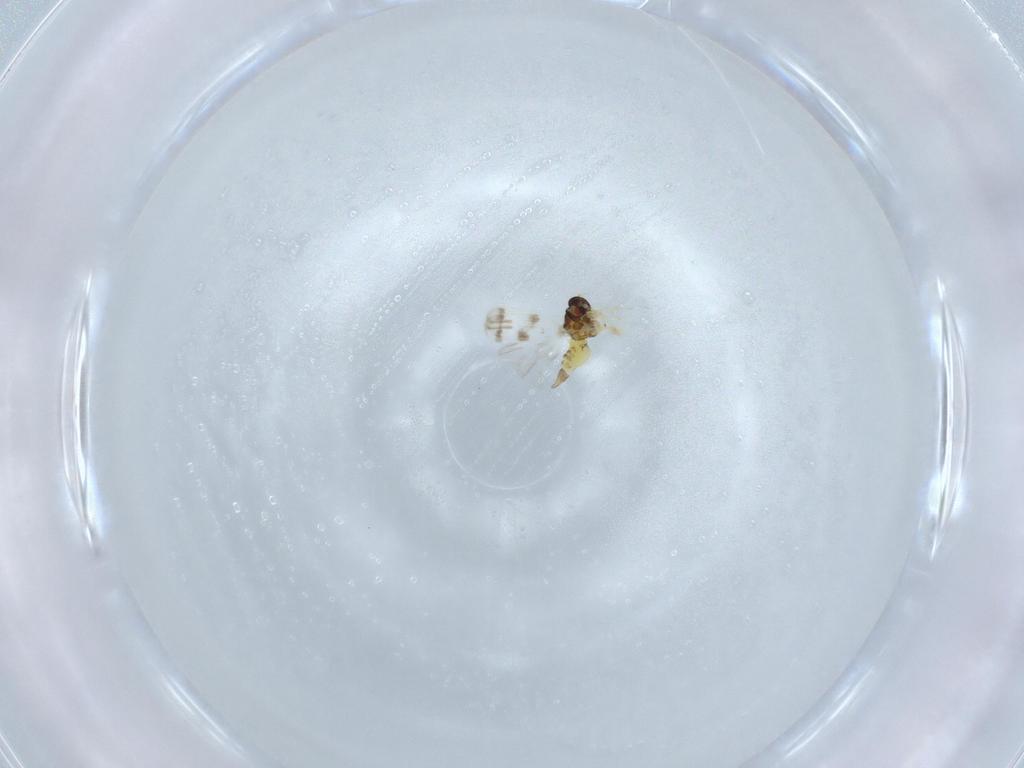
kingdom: Animalia
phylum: Arthropoda
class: Insecta
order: Hemiptera
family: Aleyrodidae
